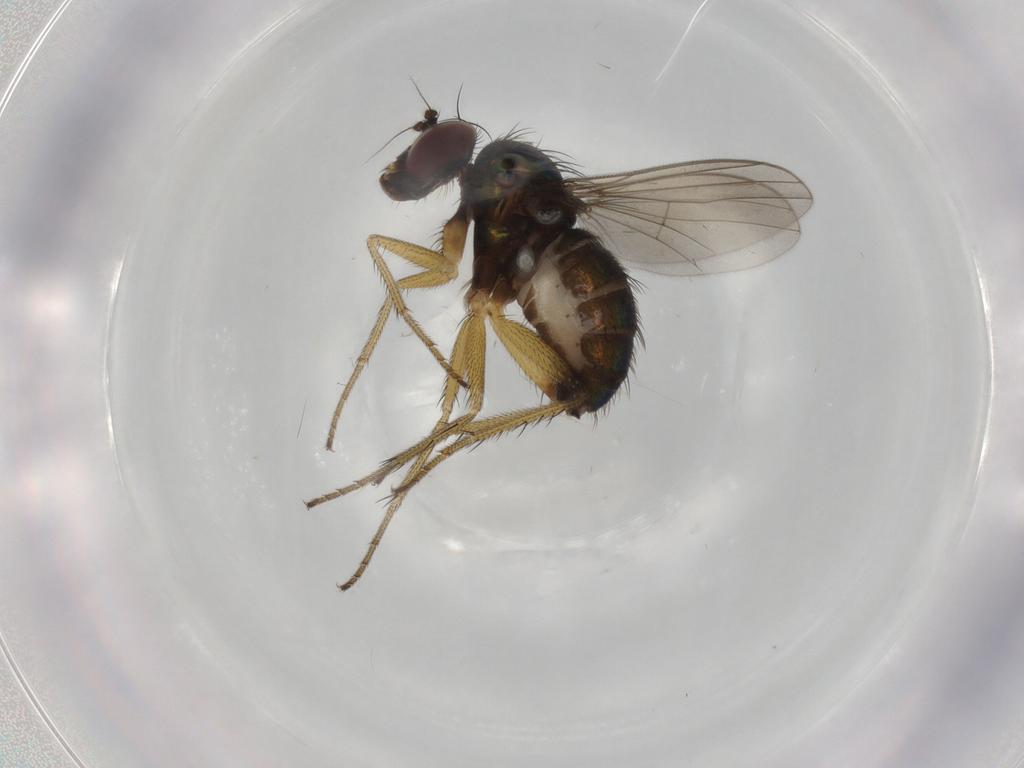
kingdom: Animalia
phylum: Arthropoda
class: Insecta
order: Diptera
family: Dolichopodidae
